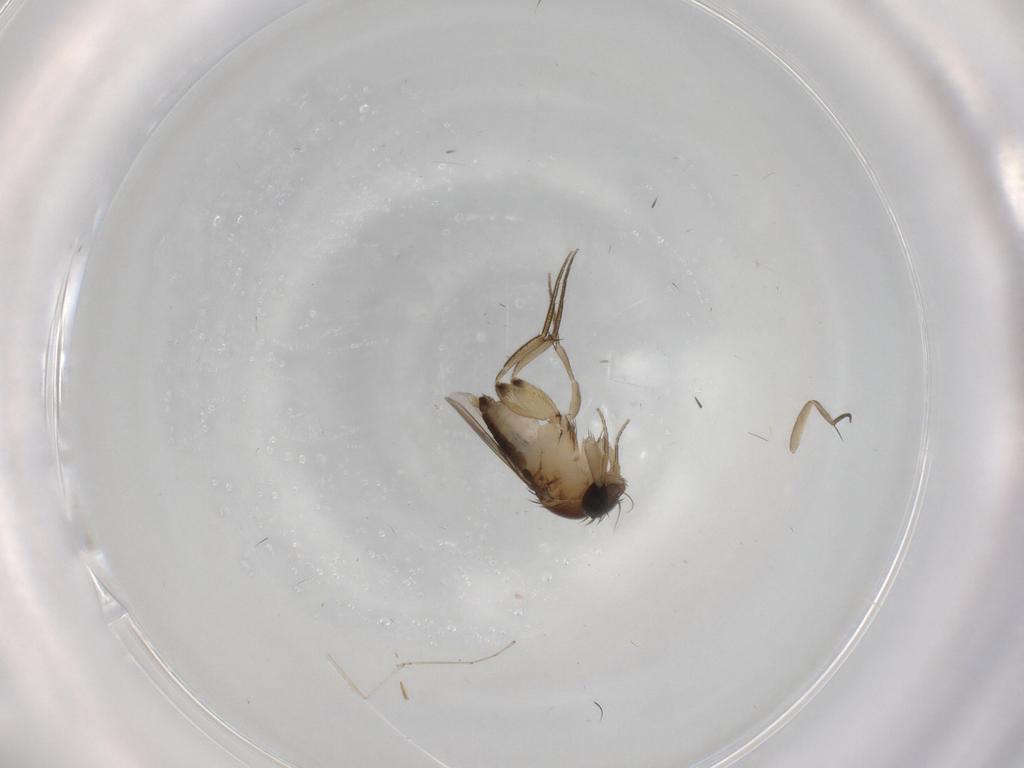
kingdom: Animalia
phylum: Arthropoda
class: Insecta
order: Diptera
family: Phoridae
